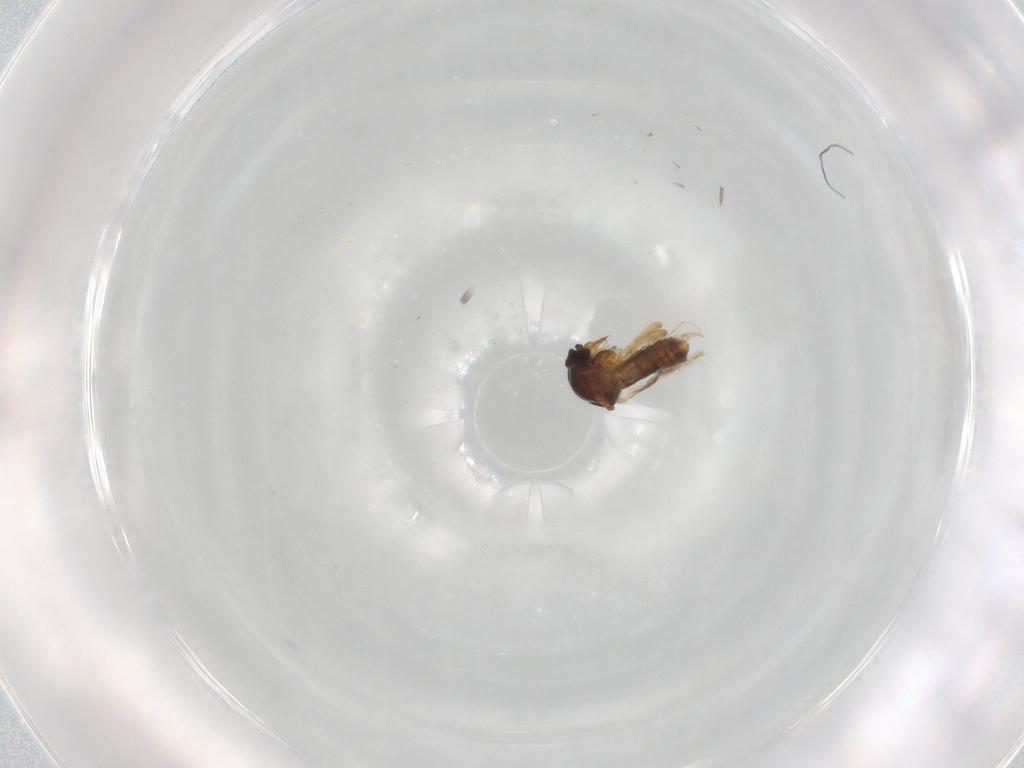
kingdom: Animalia
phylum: Arthropoda
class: Insecta
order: Diptera
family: Ceratopogonidae
